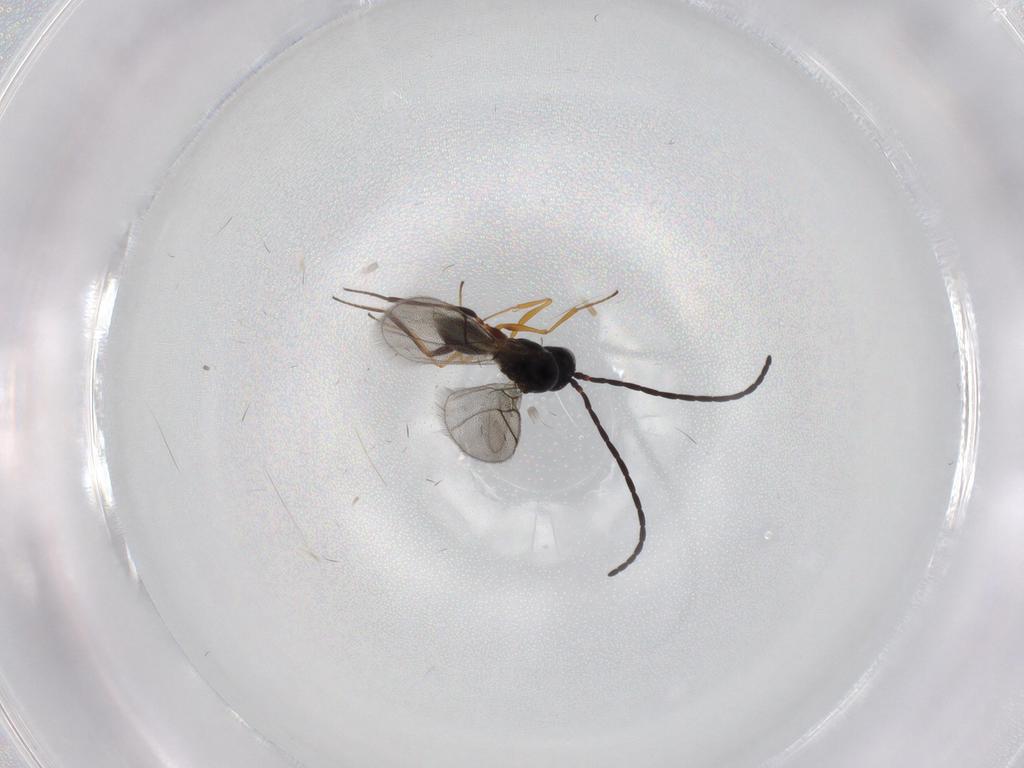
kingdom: Animalia
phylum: Arthropoda
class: Insecta
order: Hymenoptera
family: Figitidae
